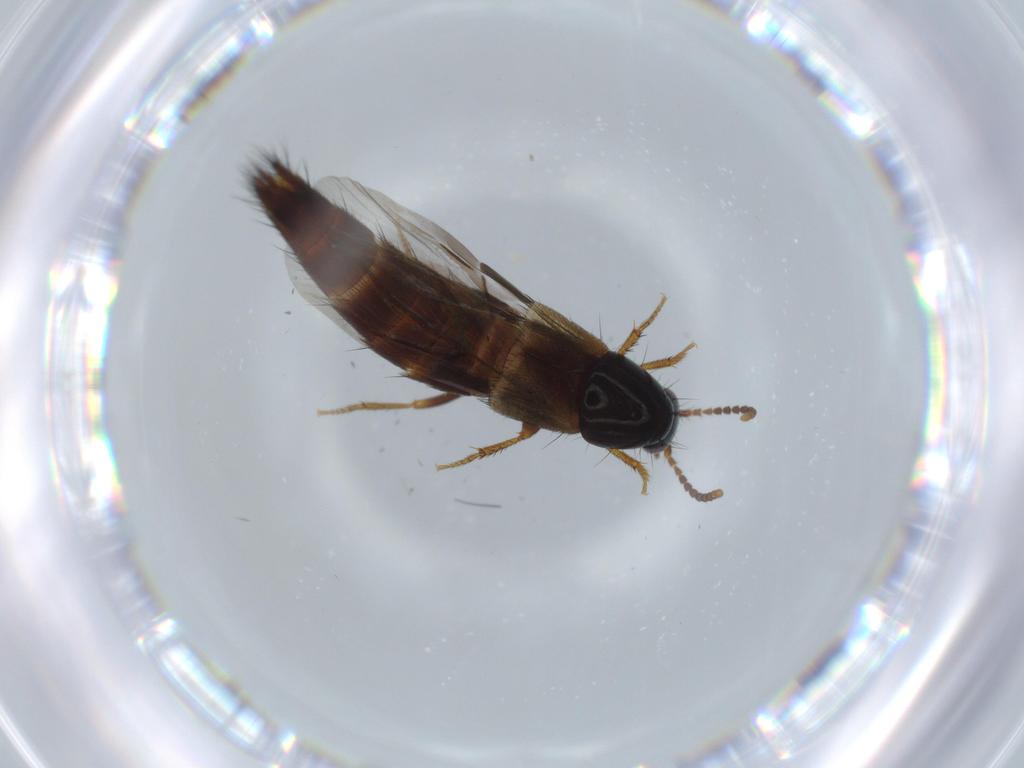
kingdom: Animalia
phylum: Arthropoda
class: Insecta
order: Coleoptera
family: Staphylinidae
